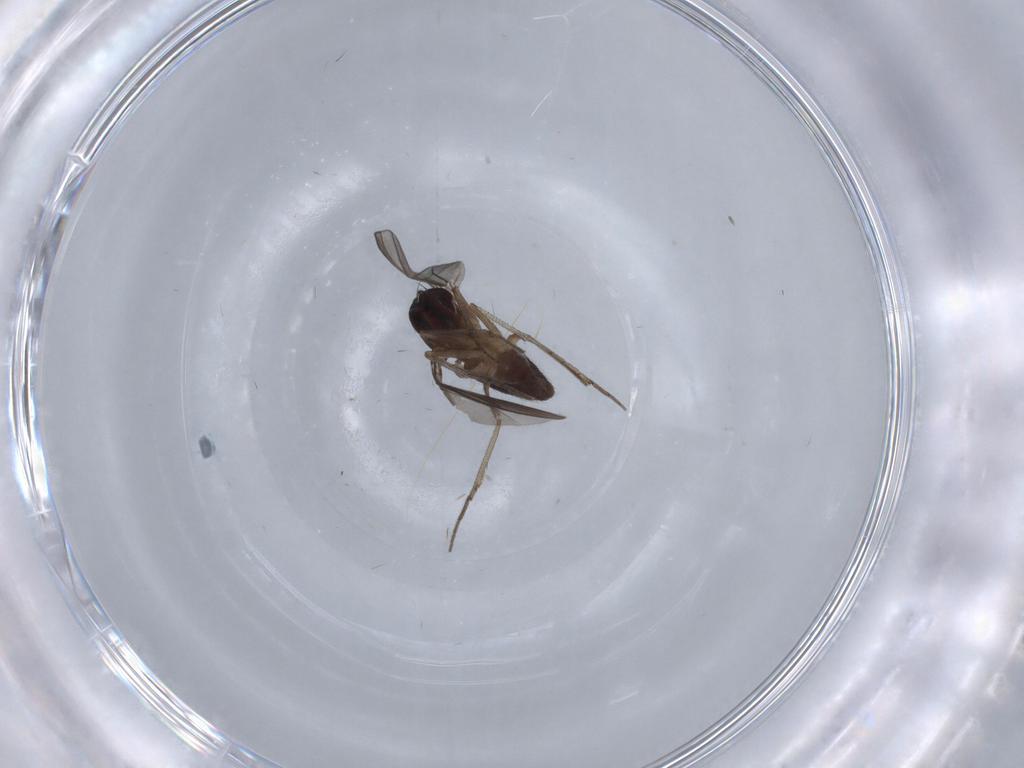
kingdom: Animalia
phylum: Arthropoda
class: Insecta
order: Diptera
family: Dolichopodidae
